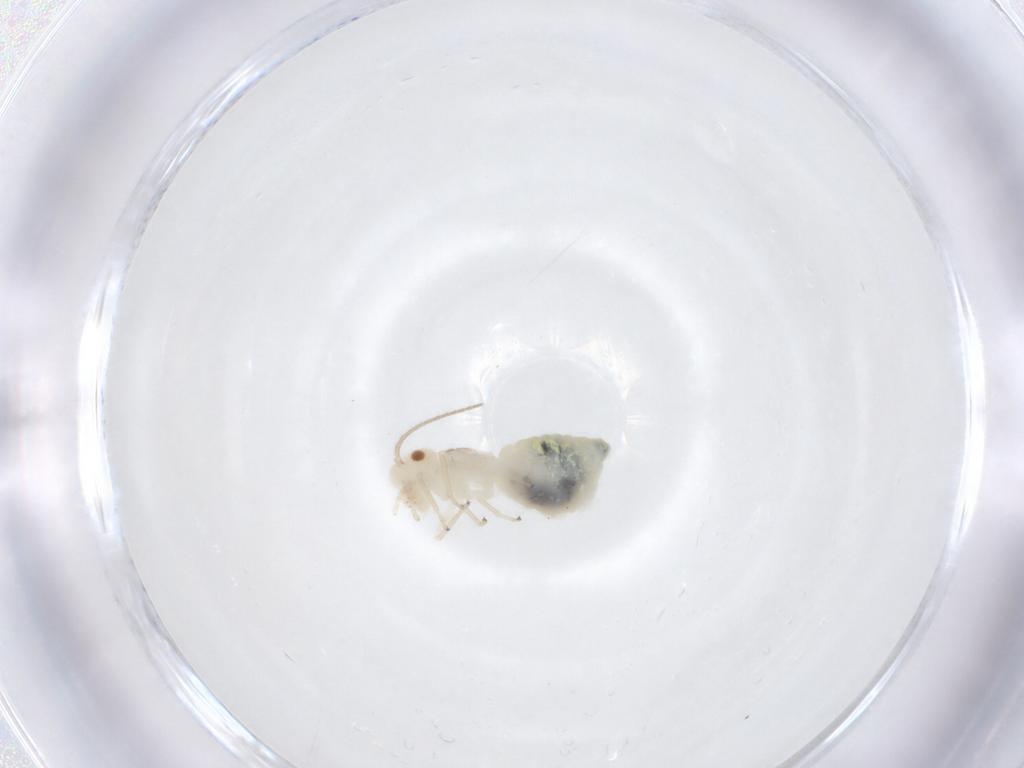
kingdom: Animalia
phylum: Arthropoda
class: Insecta
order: Psocodea
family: Caeciliusidae
